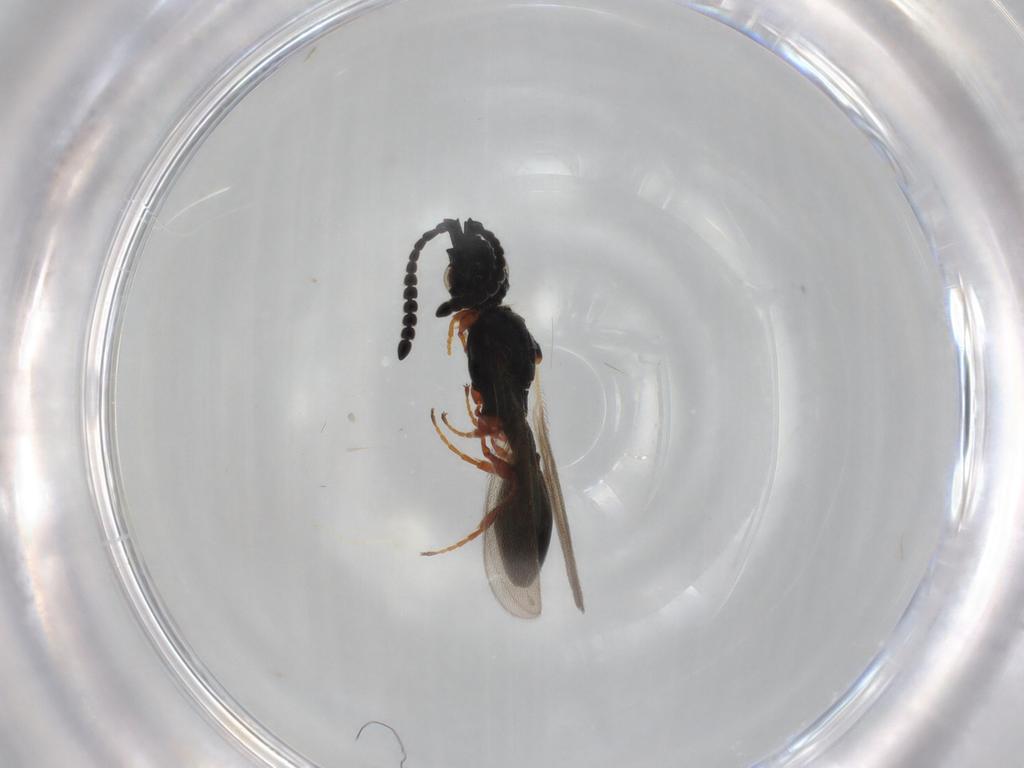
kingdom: Animalia
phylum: Arthropoda
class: Insecta
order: Hymenoptera
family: Diapriidae
